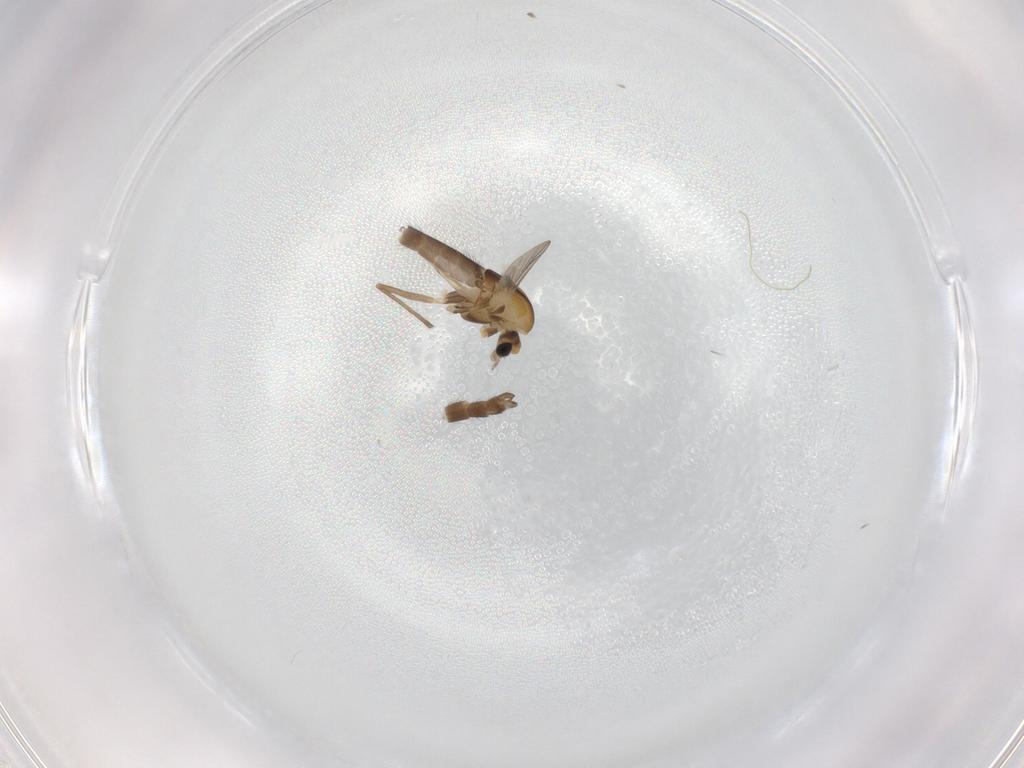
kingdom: Animalia
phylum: Arthropoda
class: Insecta
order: Diptera
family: Chironomidae
